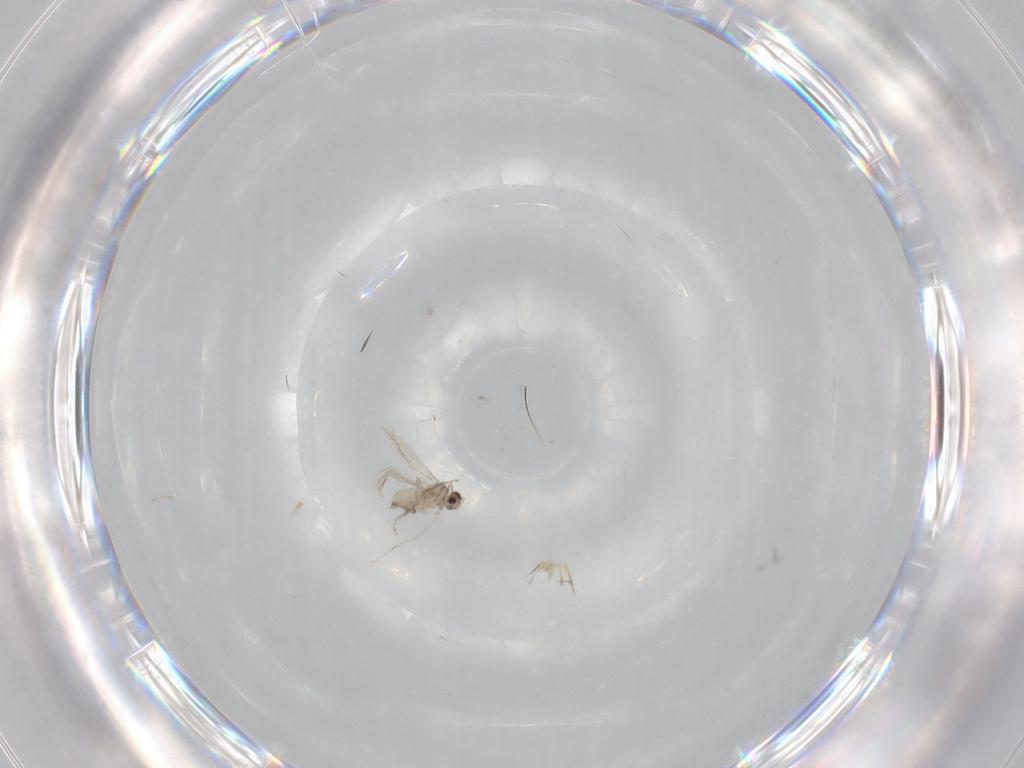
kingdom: Animalia
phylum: Arthropoda
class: Insecta
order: Diptera
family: Cecidomyiidae
